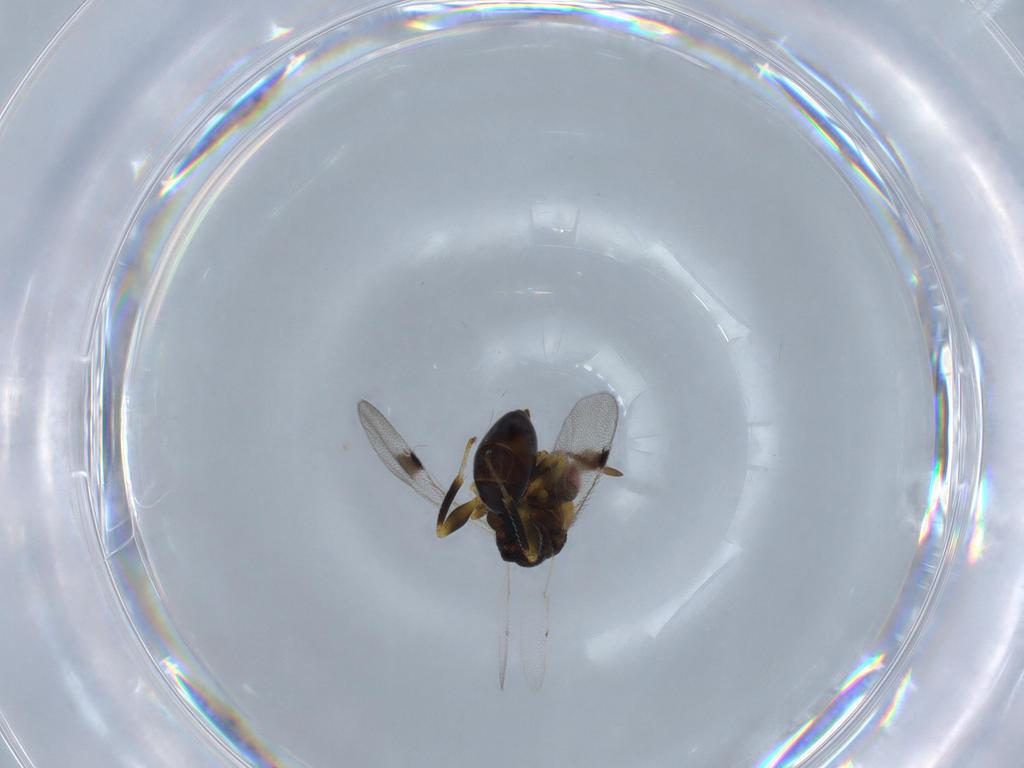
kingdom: Animalia
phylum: Arthropoda
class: Insecta
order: Hymenoptera
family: Eurytomidae
